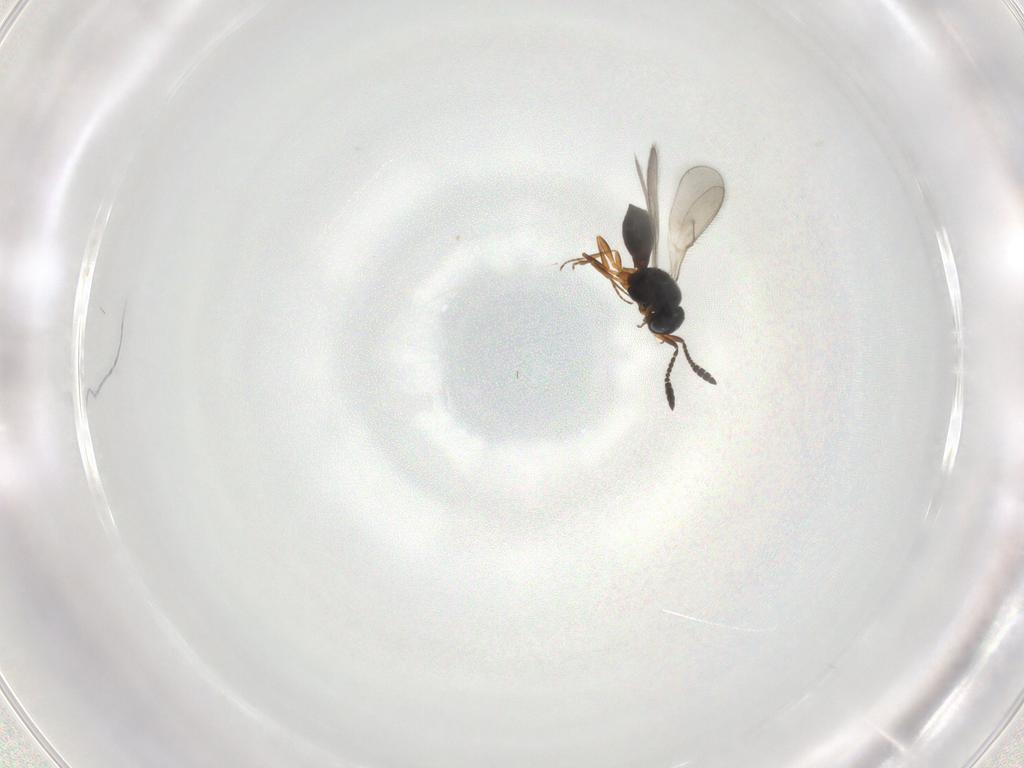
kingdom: Animalia
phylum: Arthropoda
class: Insecta
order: Hymenoptera
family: Scelionidae
